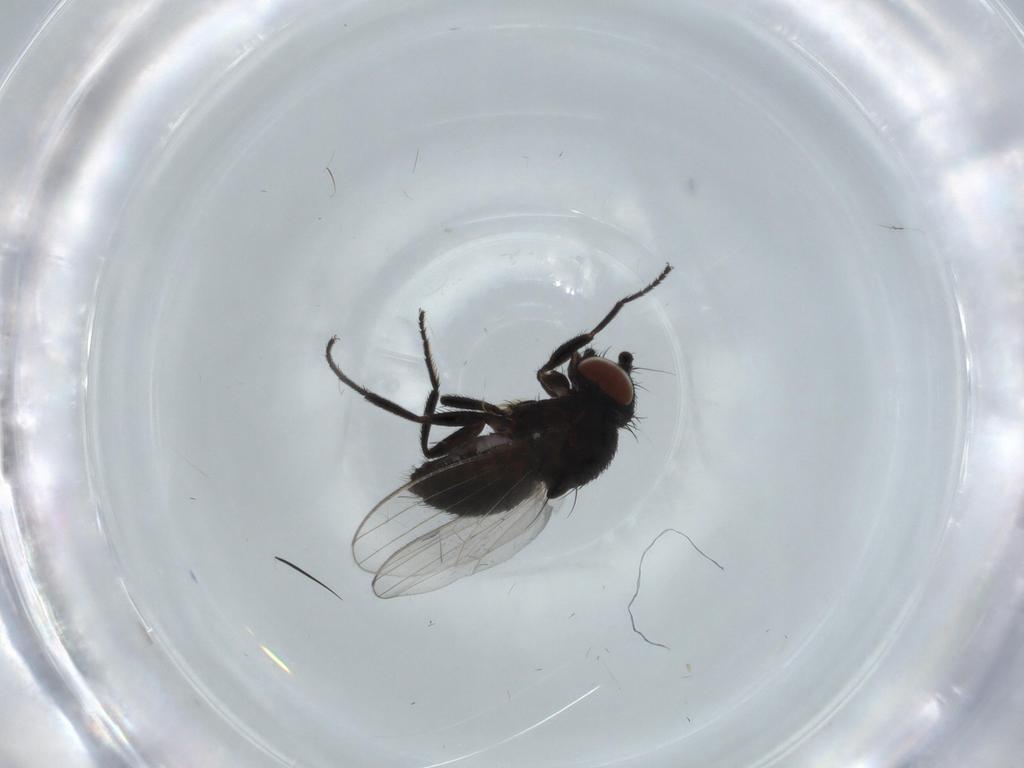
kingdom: Animalia
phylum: Arthropoda
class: Insecta
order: Diptera
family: Asilidae
